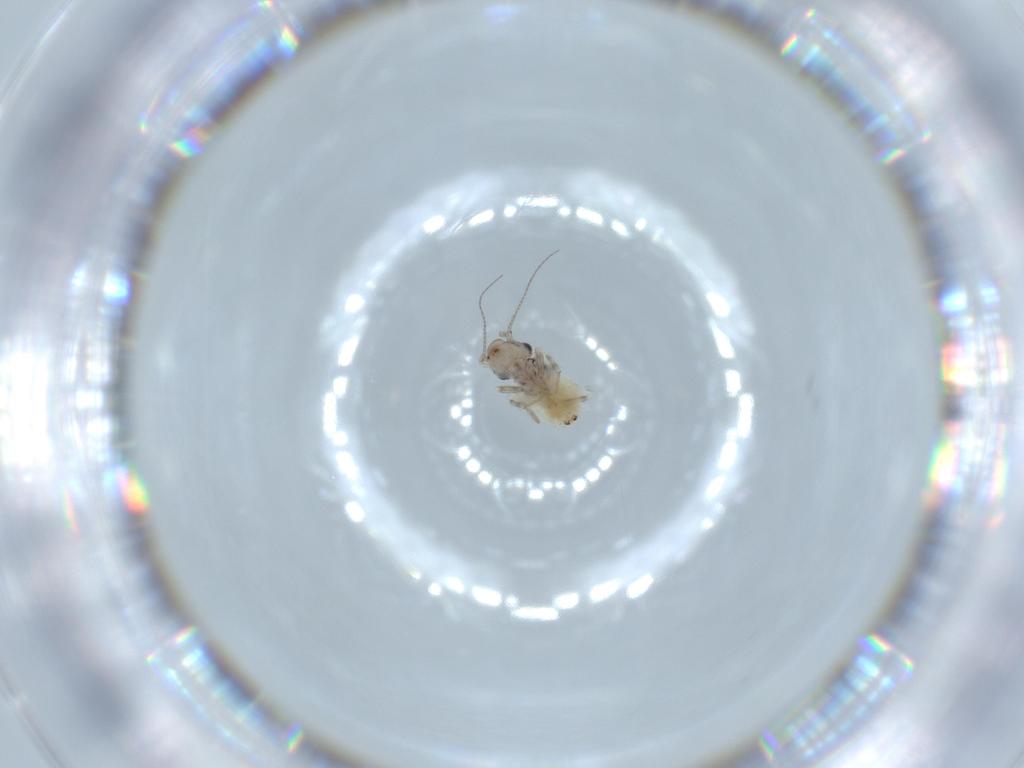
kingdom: Animalia
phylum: Arthropoda
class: Insecta
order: Psocodea
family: Lepidopsocidae
